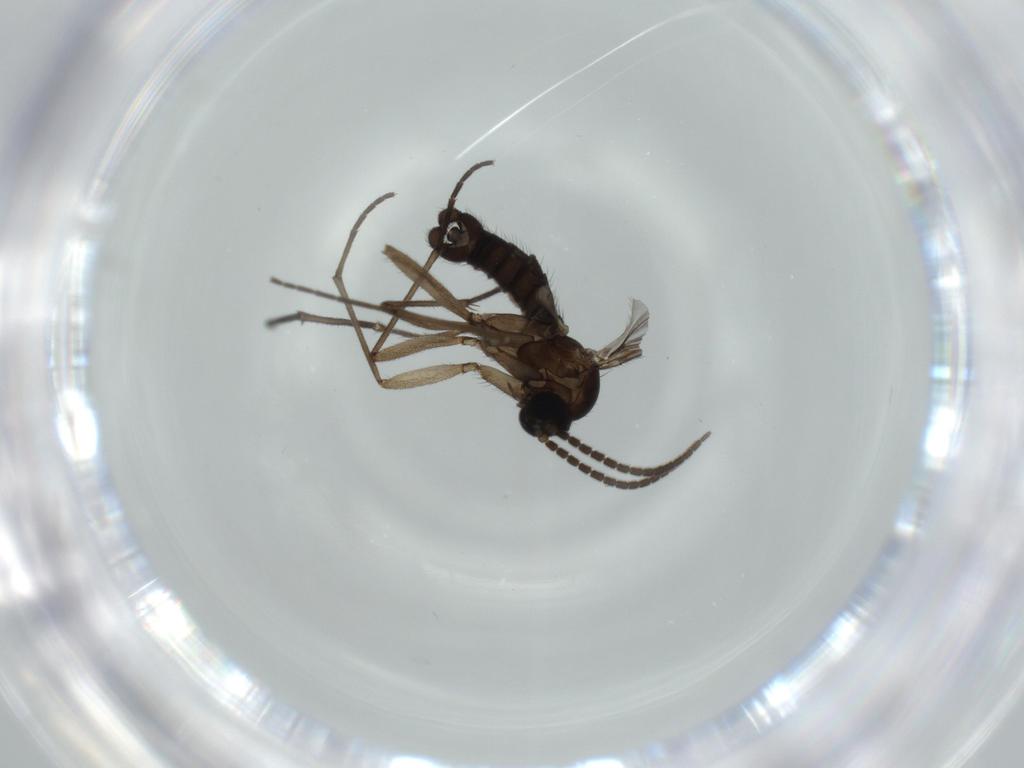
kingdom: Animalia
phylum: Arthropoda
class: Insecta
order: Diptera
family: Sciaridae
